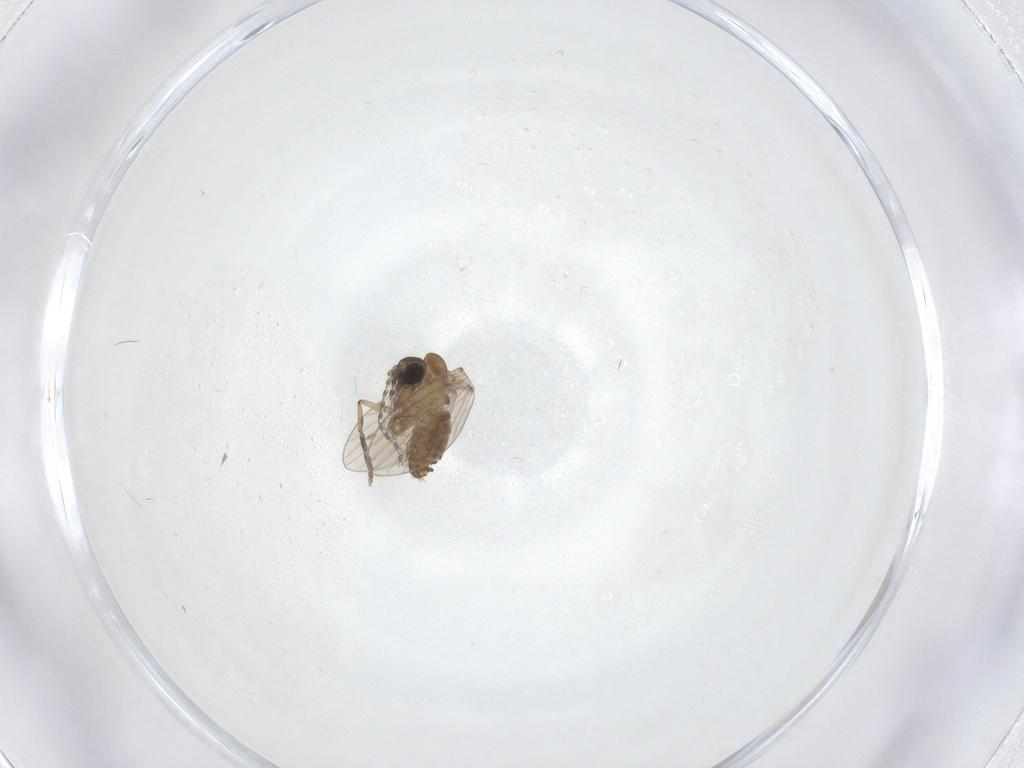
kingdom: Animalia
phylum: Arthropoda
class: Insecta
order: Diptera
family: Psychodidae
